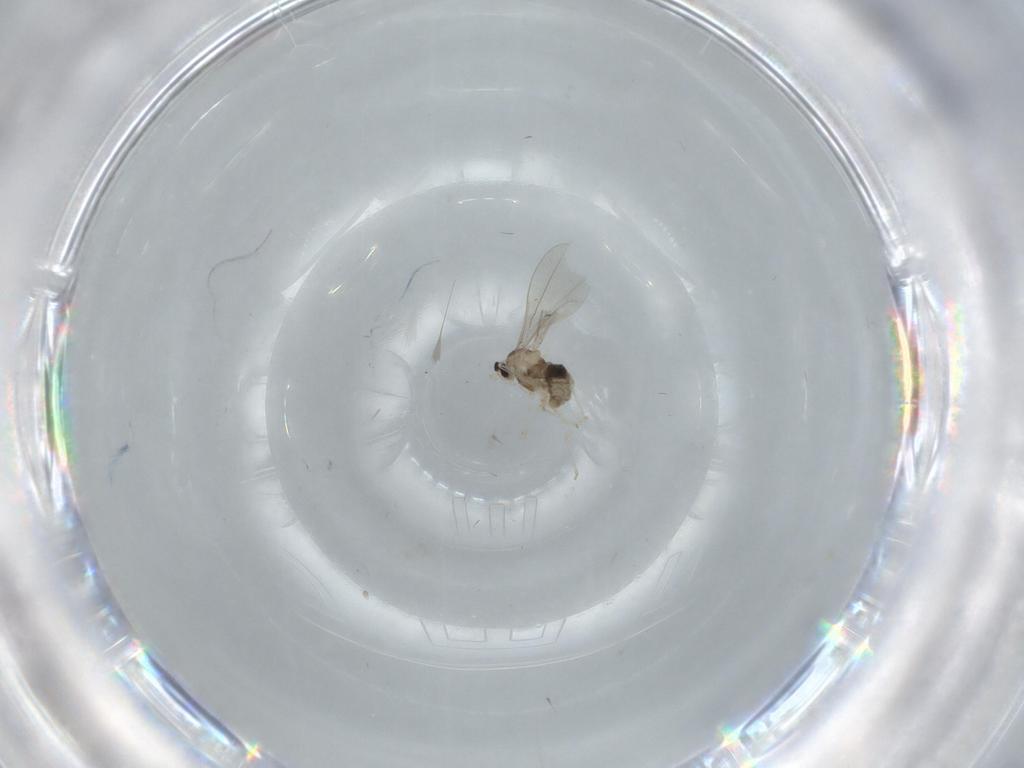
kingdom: Animalia
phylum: Arthropoda
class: Insecta
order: Diptera
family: Cecidomyiidae
